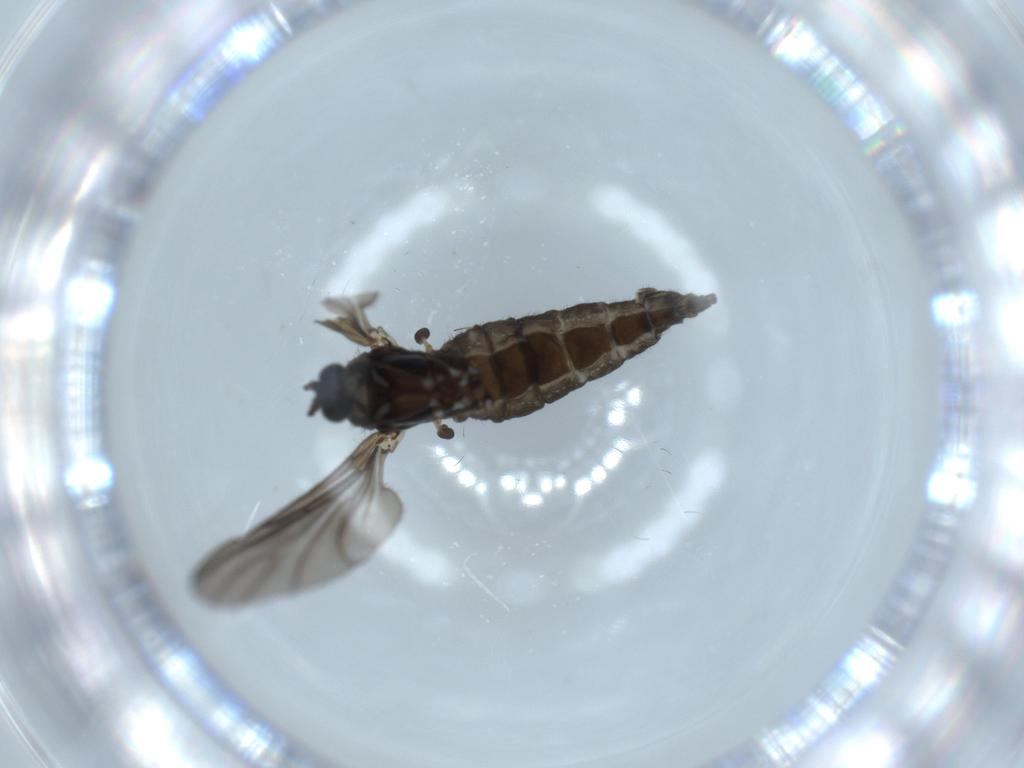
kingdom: Animalia
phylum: Arthropoda
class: Insecta
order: Diptera
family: Sciaridae
